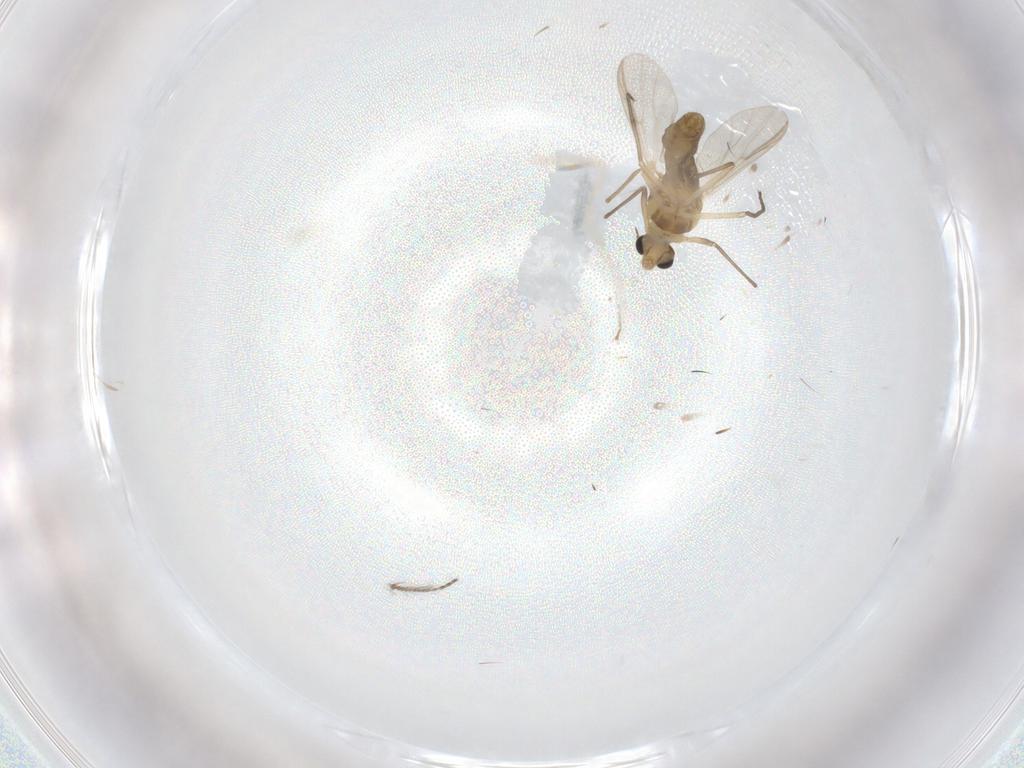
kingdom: Animalia
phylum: Arthropoda
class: Insecta
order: Diptera
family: Chironomidae
